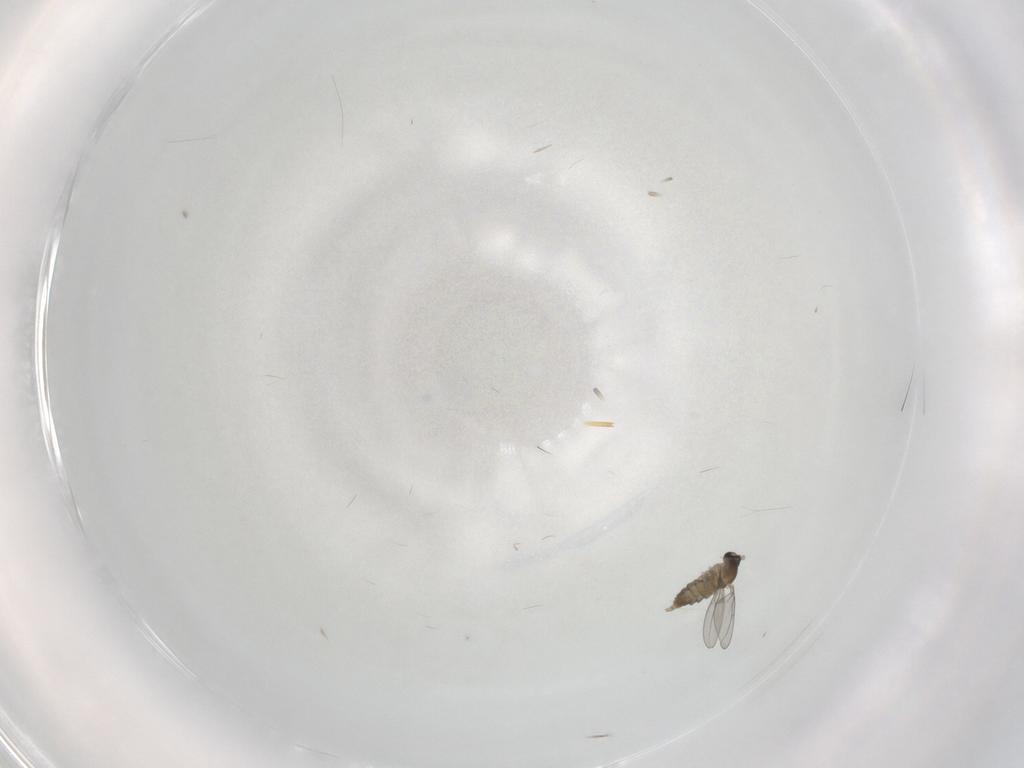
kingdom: Animalia
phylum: Arthropoda
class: Insecta
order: Diptera
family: Cecidomyiidae
